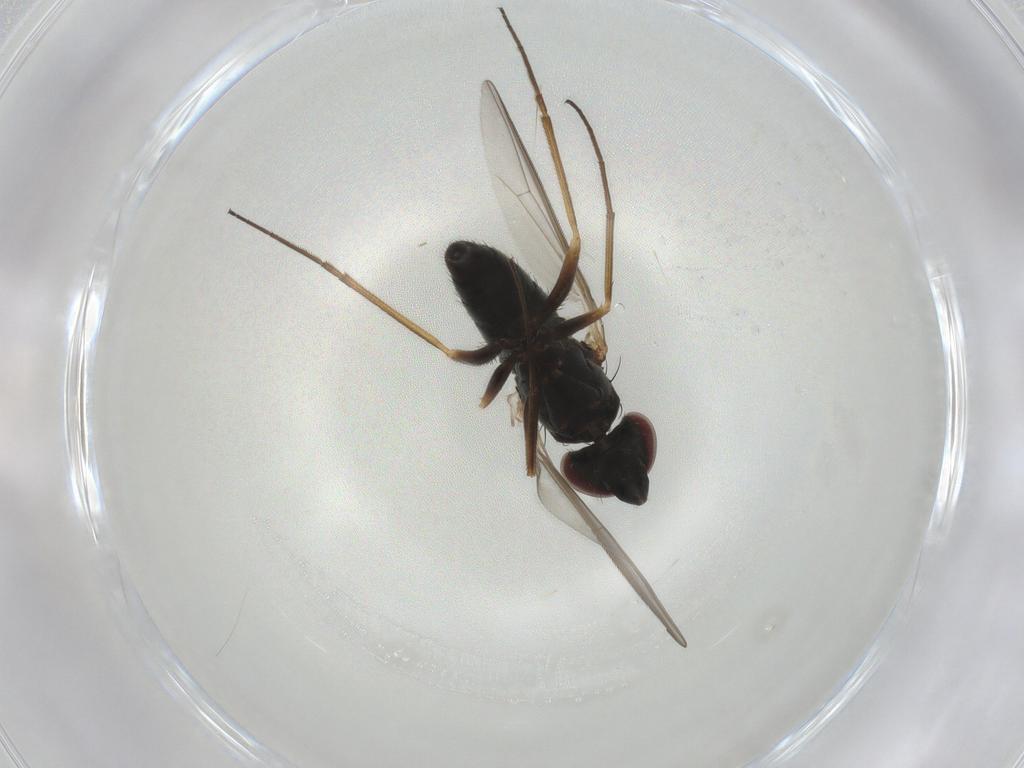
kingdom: Animalia
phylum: Arthropoda
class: Insecta
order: Diptera
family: Dolichopodidae
